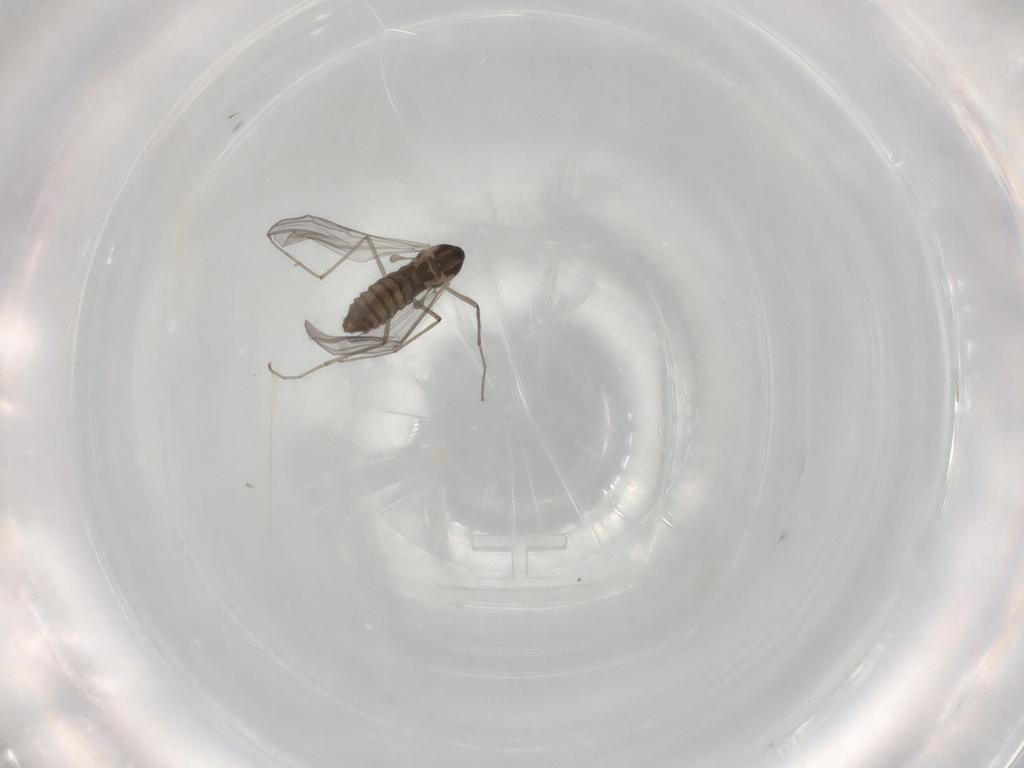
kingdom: Animalia
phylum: Arthropoda
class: Insecta
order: Diptera
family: Chironomidae
